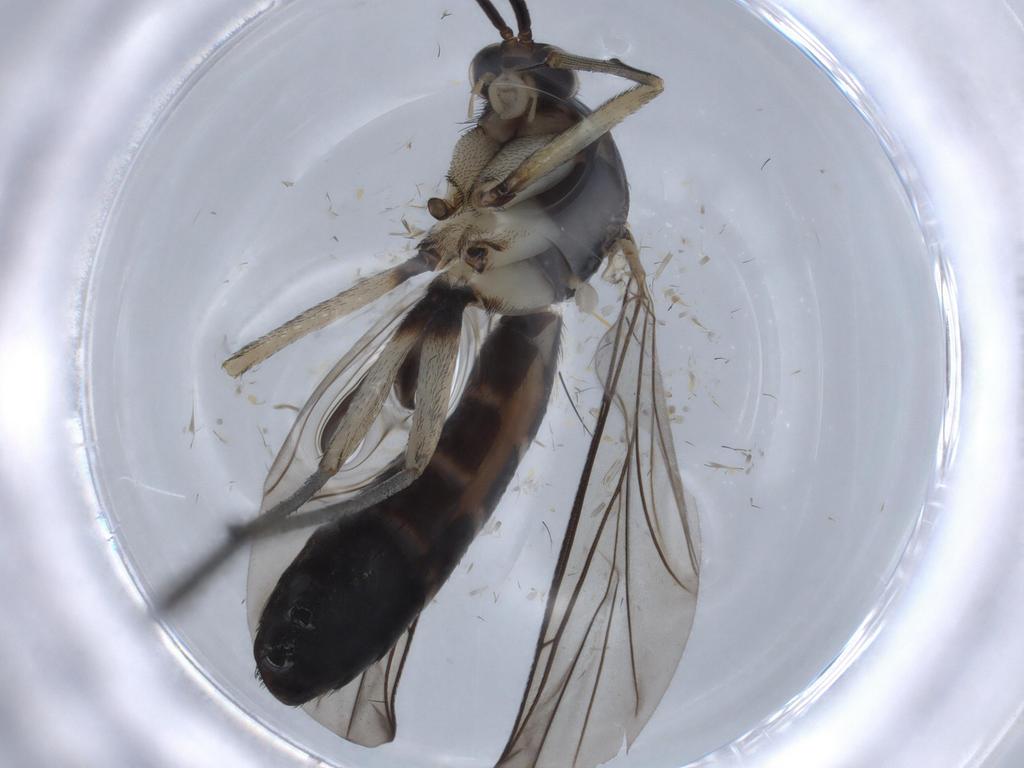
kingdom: Animalia
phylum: Arthropoda
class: Insecta
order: Diptera
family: Ceratopogonidae
